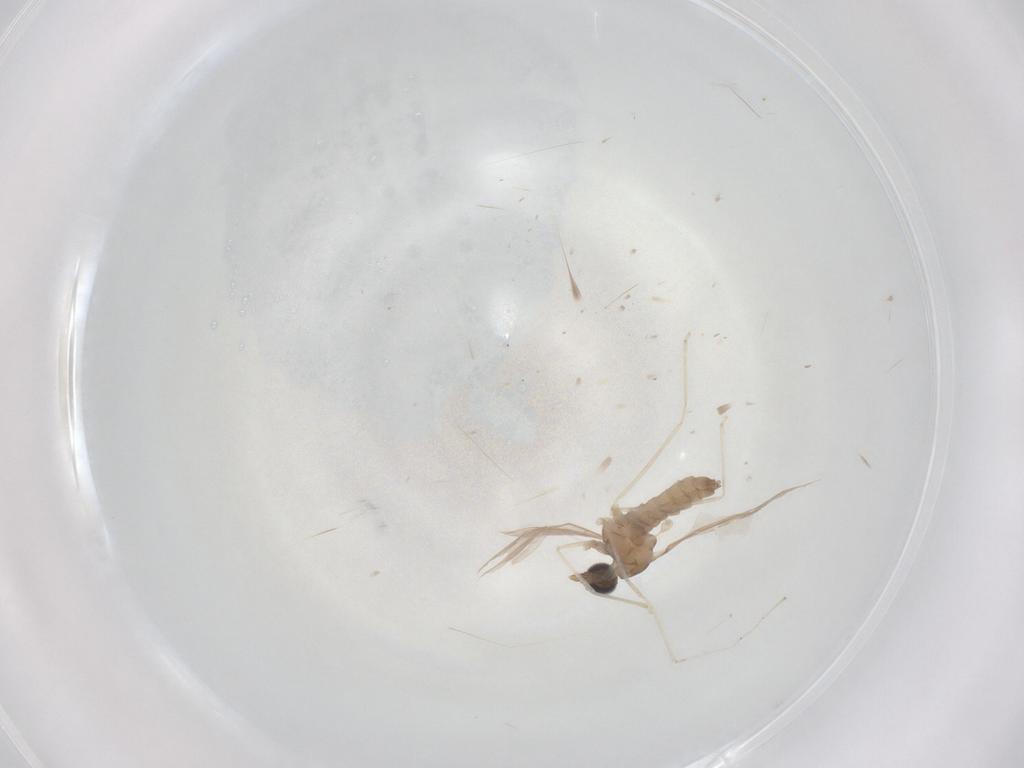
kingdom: Animalia
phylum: Arthropoda
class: Insecta
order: Diptera
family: Cecidomyiidae
